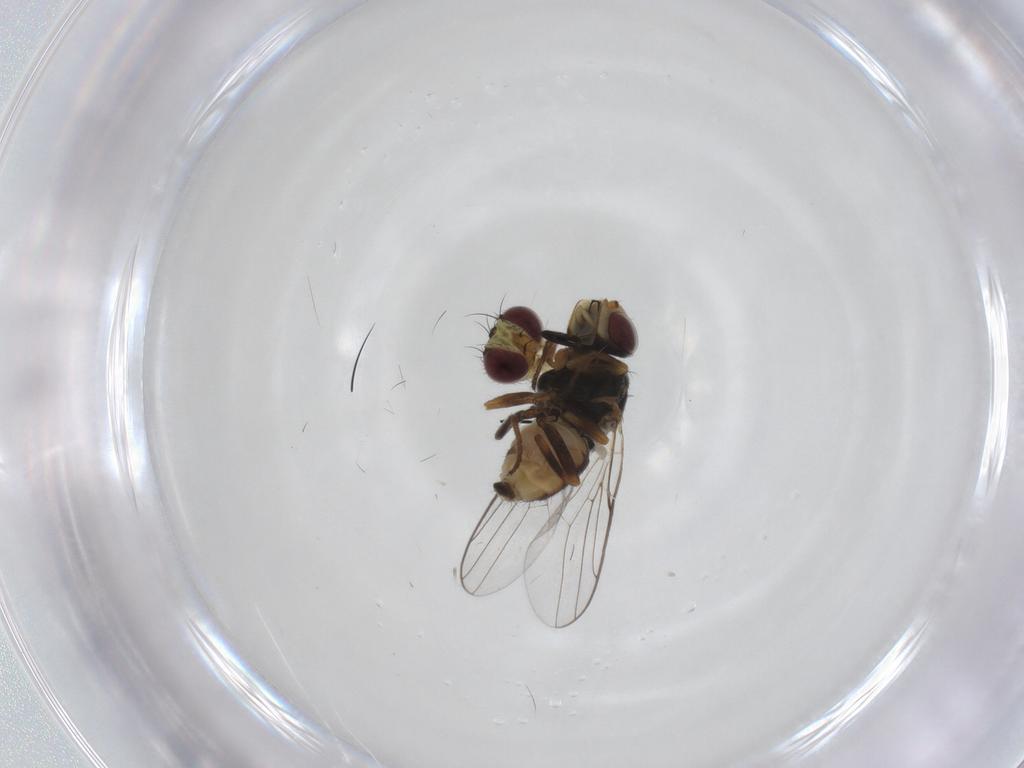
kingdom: Animalia
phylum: Arthropoda
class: Insecta
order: Diptera
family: Chloropidae
